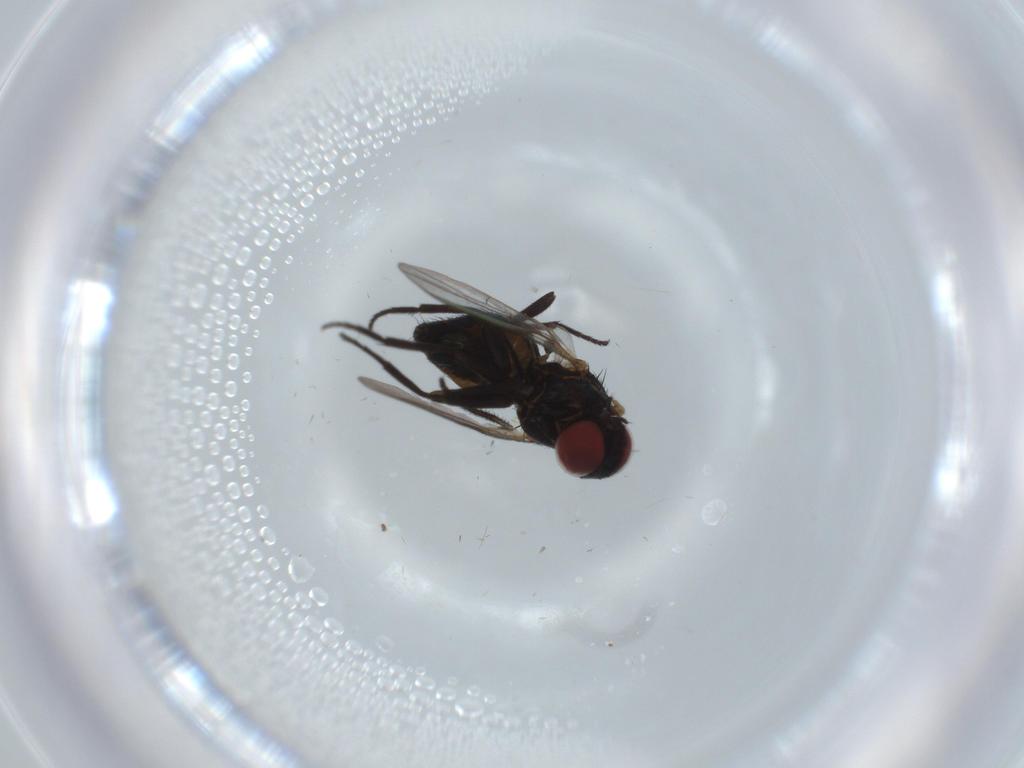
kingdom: Animalia
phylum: Arthropoda
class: Insecta
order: Diptera
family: Agromyzidae
